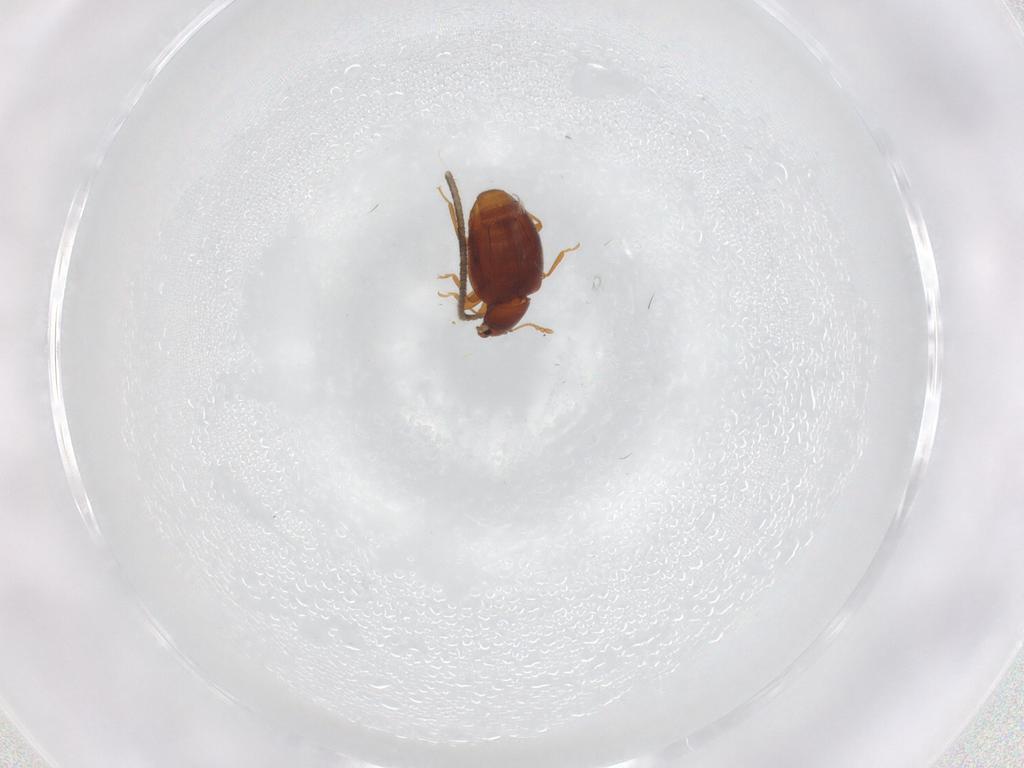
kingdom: Animalia
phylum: Arthropoda
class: Insecta
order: Coleoptera
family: Latridiidae
